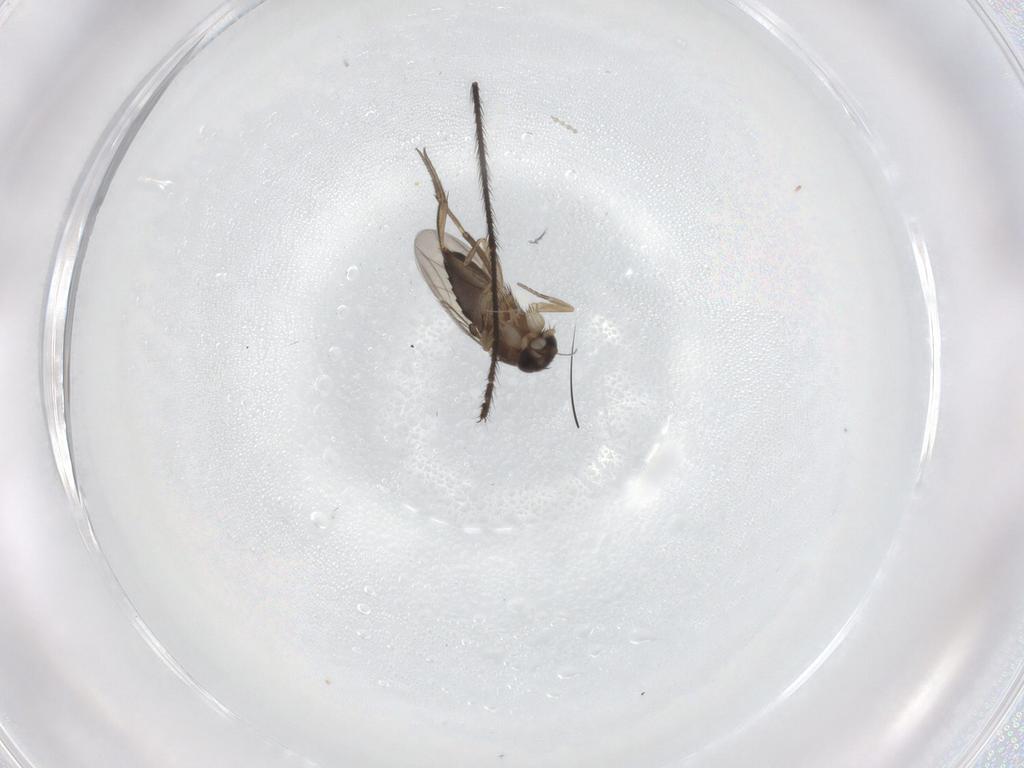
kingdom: Animalia
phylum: Arthropoda
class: Insecta
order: Diptera
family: Phoridae
